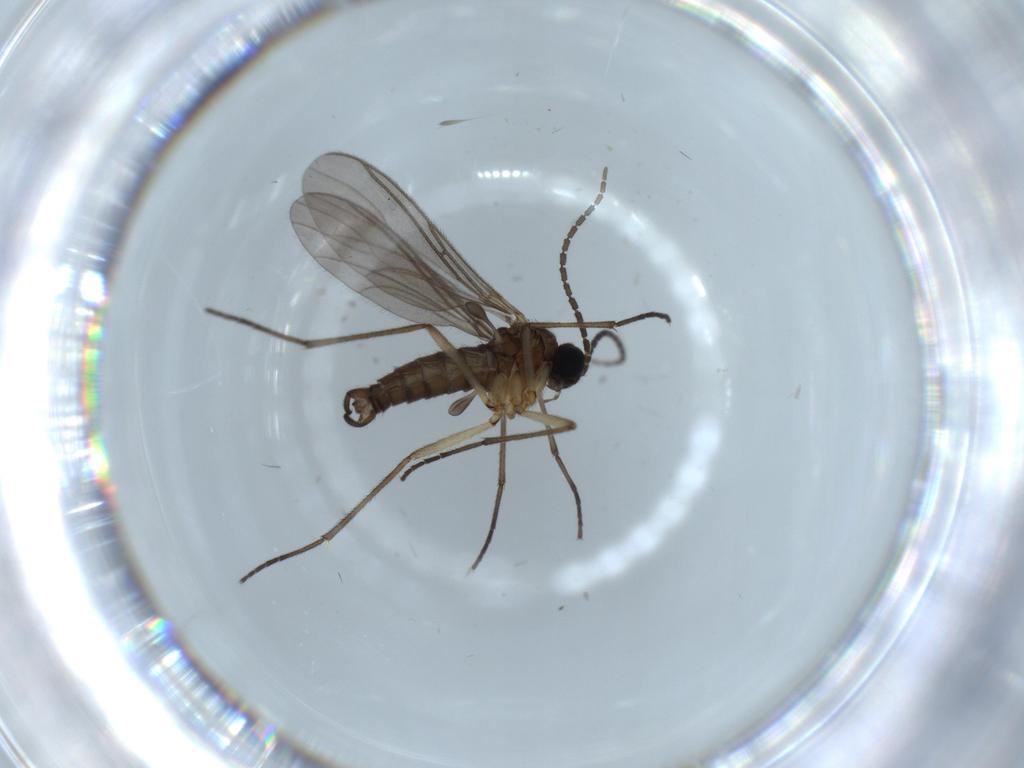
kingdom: Animalia
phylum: Arthropoda
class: Insecta
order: Diptera
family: Sciaridae
